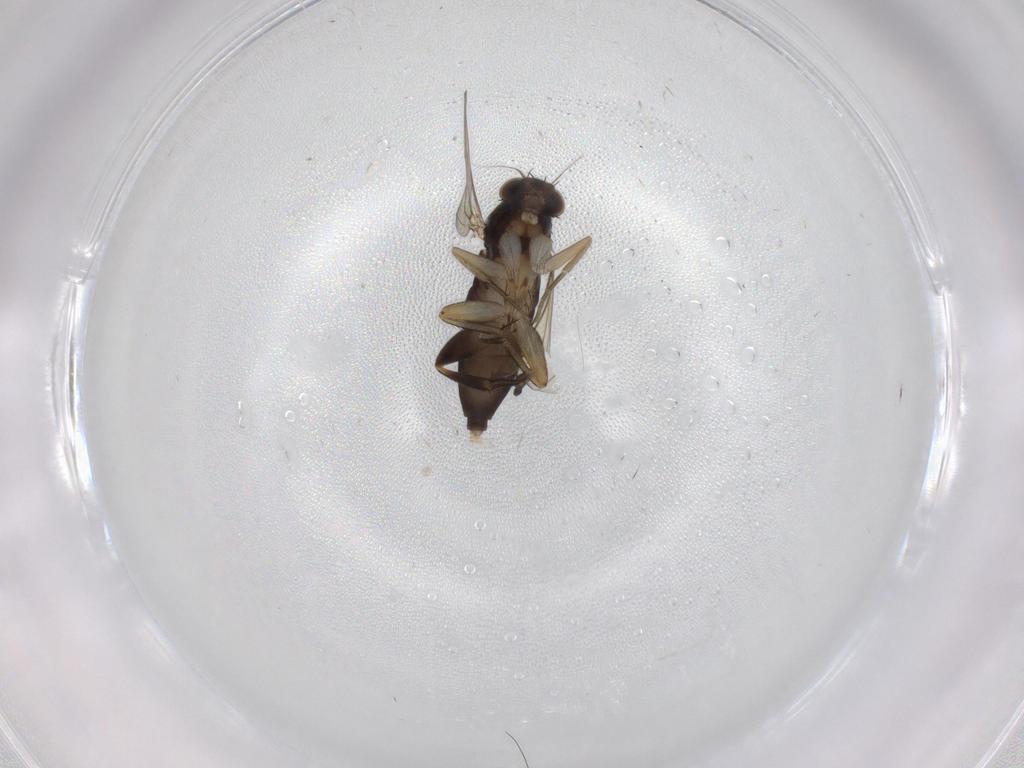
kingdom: Animalia
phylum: Arthropoda
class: Insecta
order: Diptera
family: Phoridae
